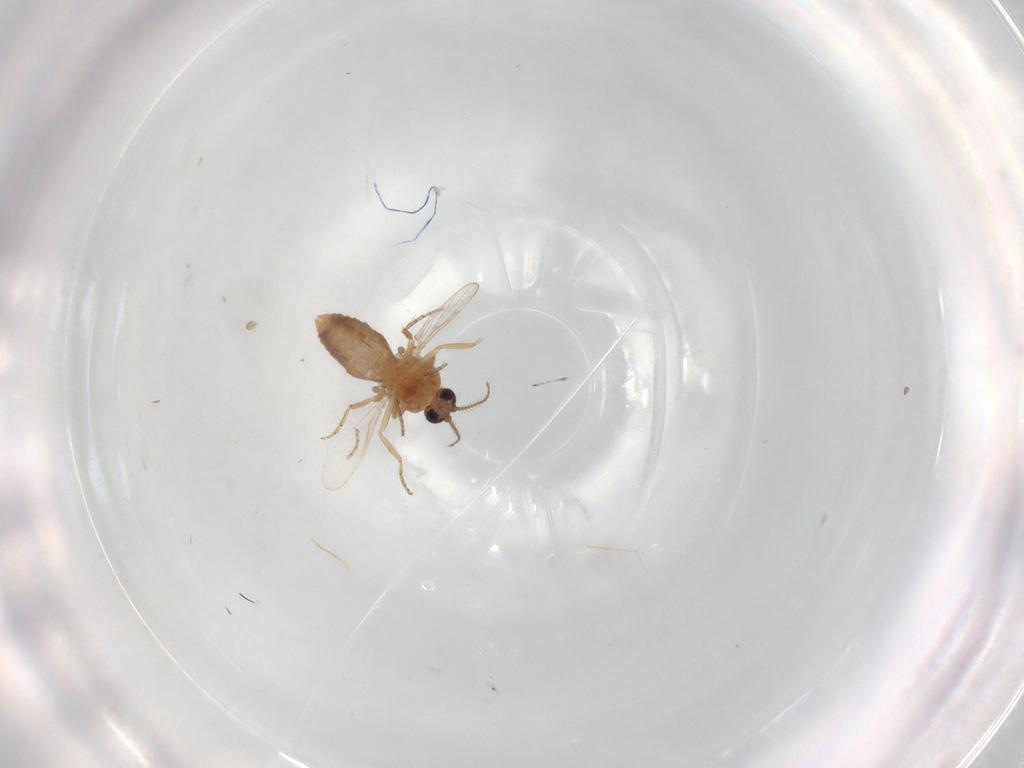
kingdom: Animalia
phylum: Arthropoda
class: Insecta
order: Diptera
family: Ceratopogonidae
